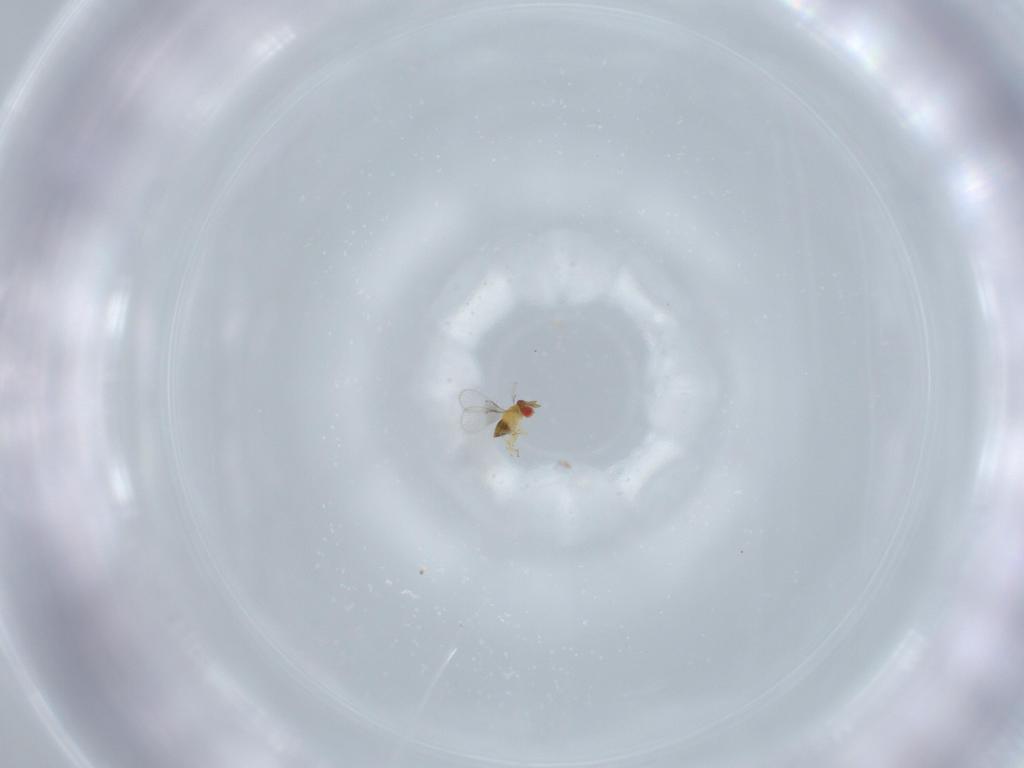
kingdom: Animalia
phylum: Arthropoda
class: Insecta
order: Hymenoptera
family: Trichogrammatidae
